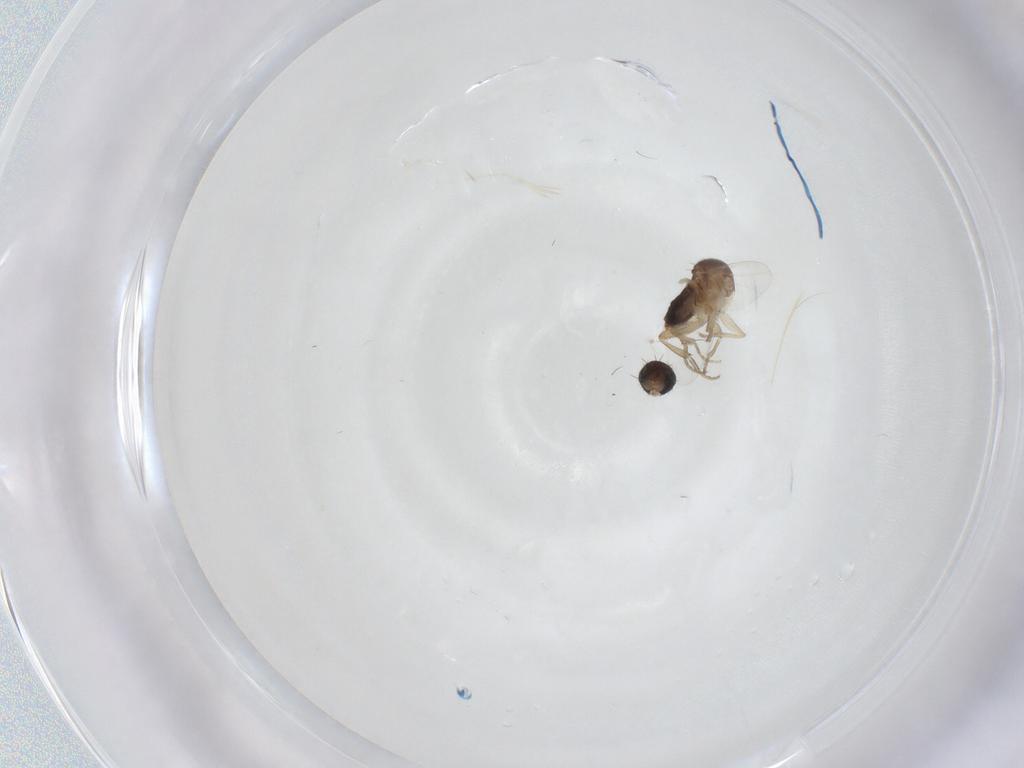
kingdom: Animalia
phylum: Arthropoda
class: Insecta
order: Diptera
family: Phoridae
